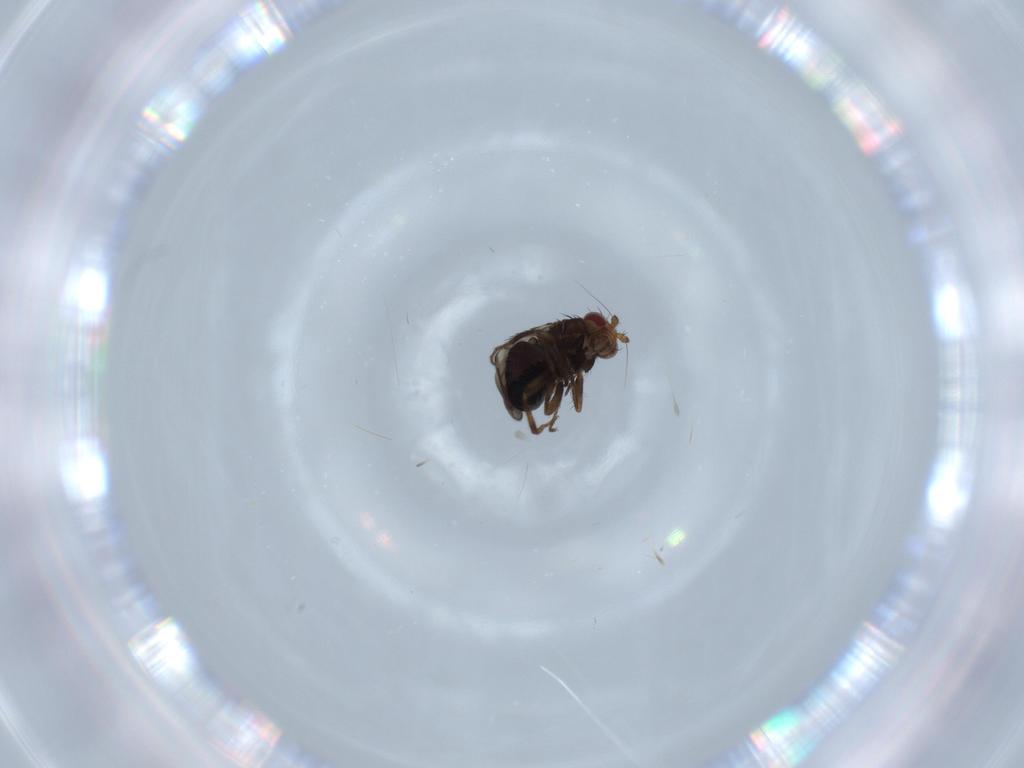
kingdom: Animalia
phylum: Arthropoda
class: Insecta
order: Diptera
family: Sphaeroceridae
